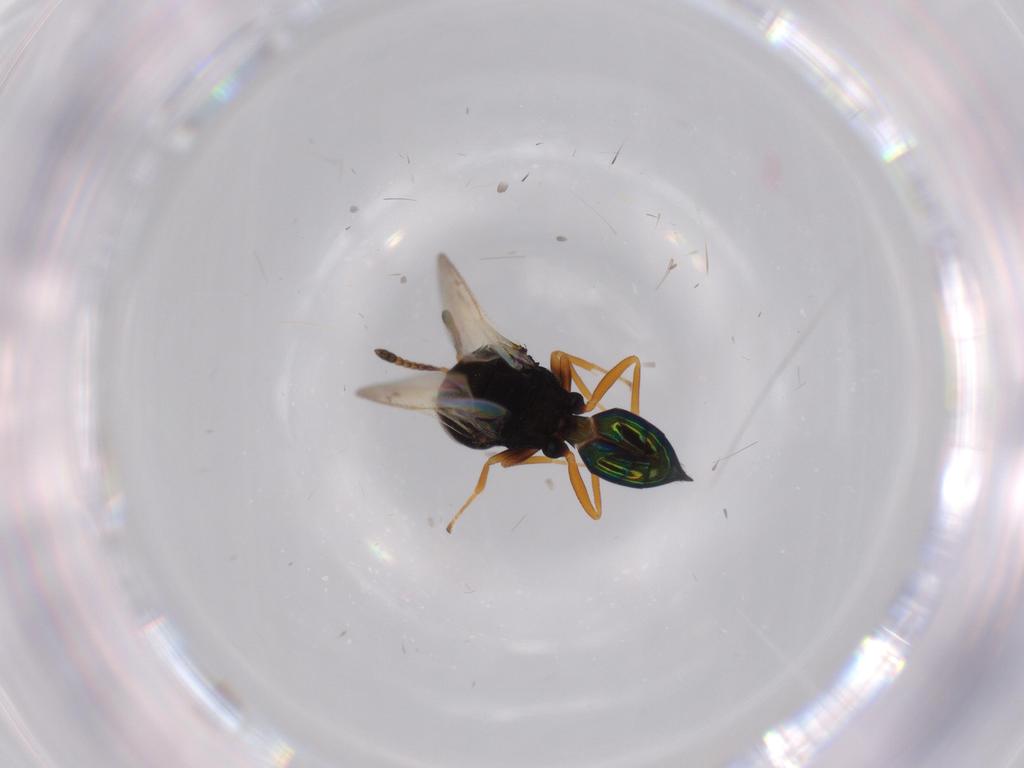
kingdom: Animalia
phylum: Arthropoda
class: Insecta
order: Hymenoptera
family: Pteromalidae
